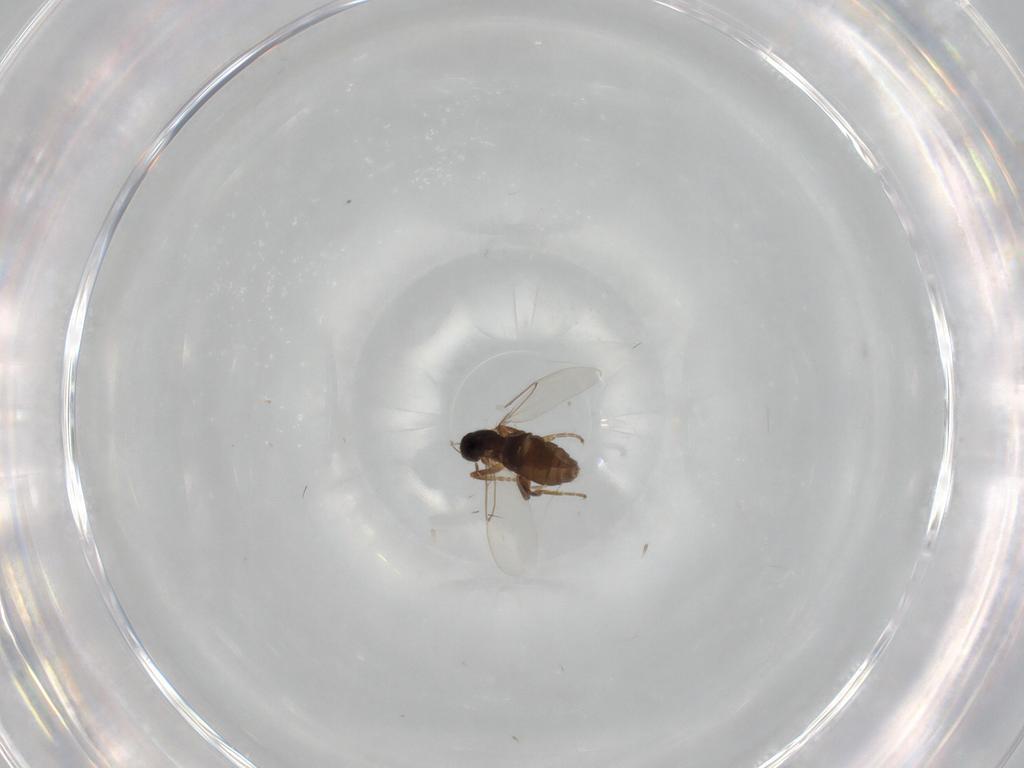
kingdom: Animalia
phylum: Arthropoda
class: Insecta
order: Diptera
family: Phoridae
